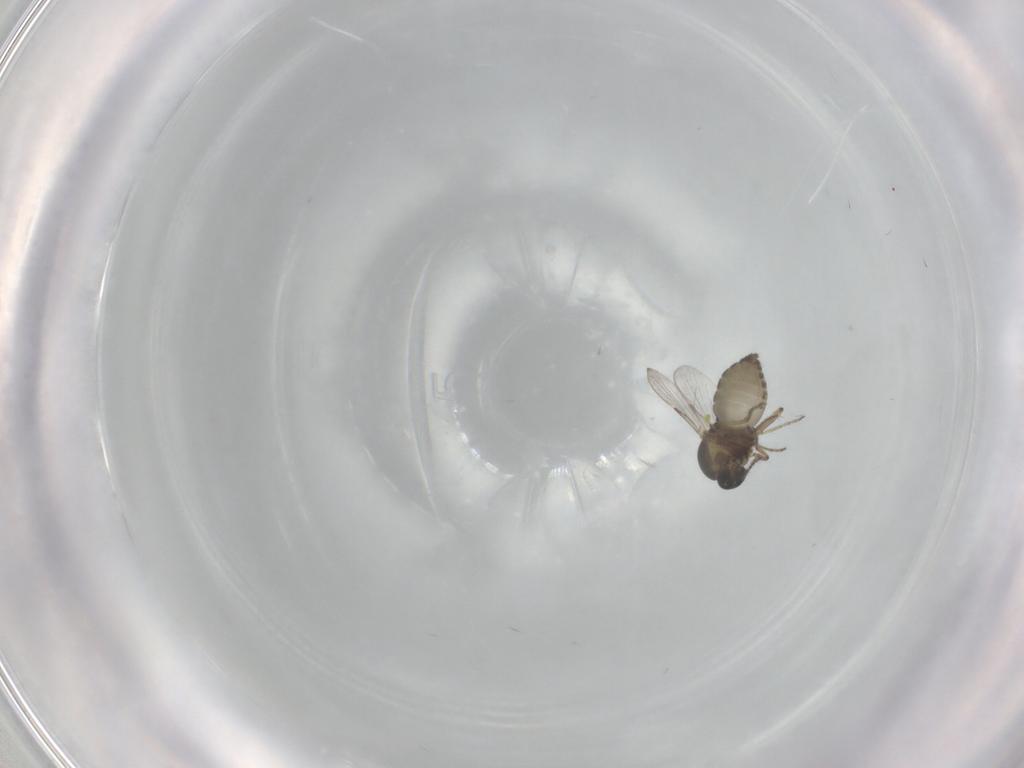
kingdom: Animalia
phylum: Arthropoda
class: Insecta
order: Diptera
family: Ceratopogonidae
